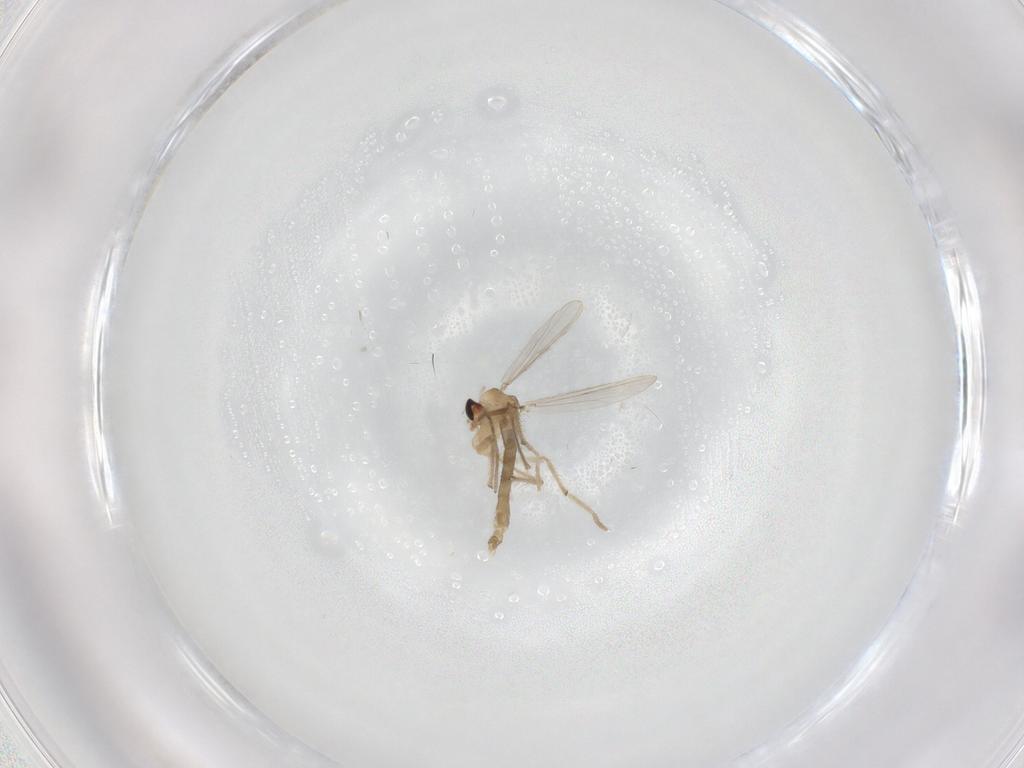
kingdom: Animalia
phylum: Arthropoda
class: Insecta
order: Diptera
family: Chironomidae
